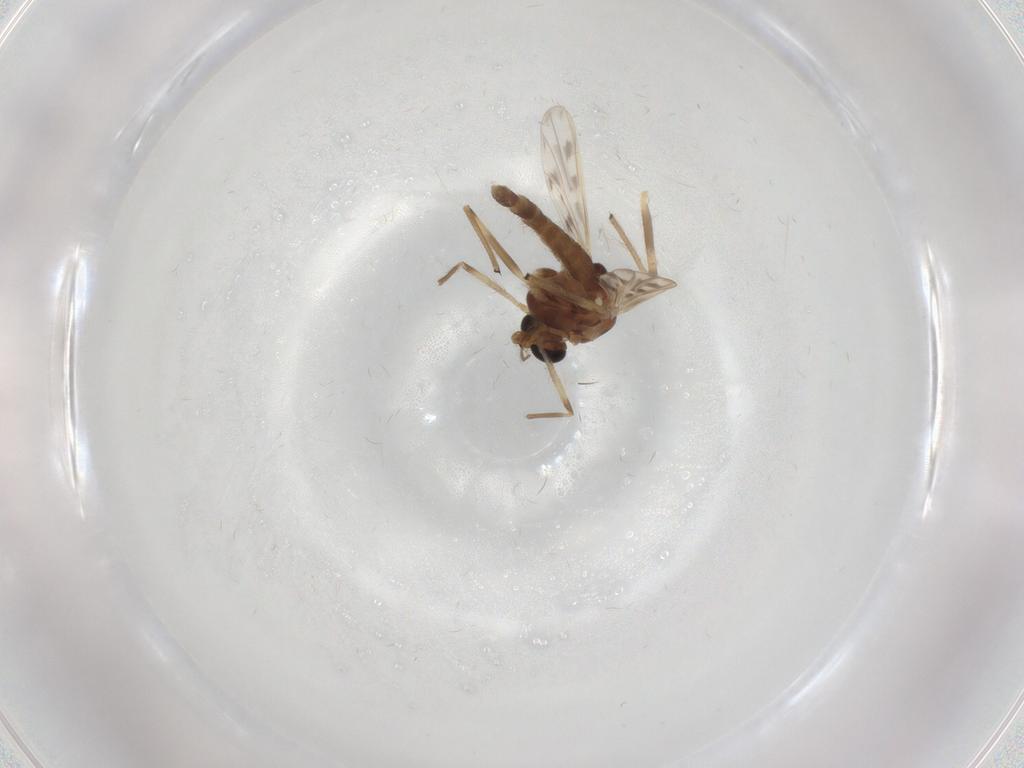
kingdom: Animalia
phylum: Arthropoda
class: Insecta
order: Diptera
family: Chironomidae
